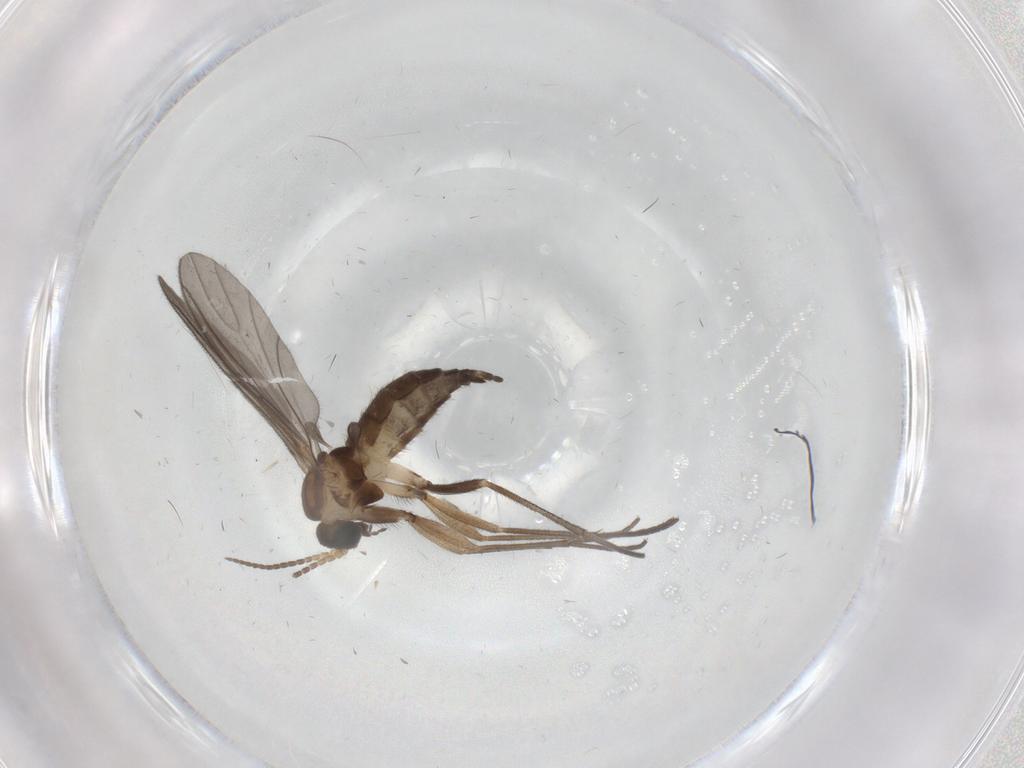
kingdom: Animalia
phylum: Arthropoda
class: Insecta
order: Diptera
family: Sciaridae
